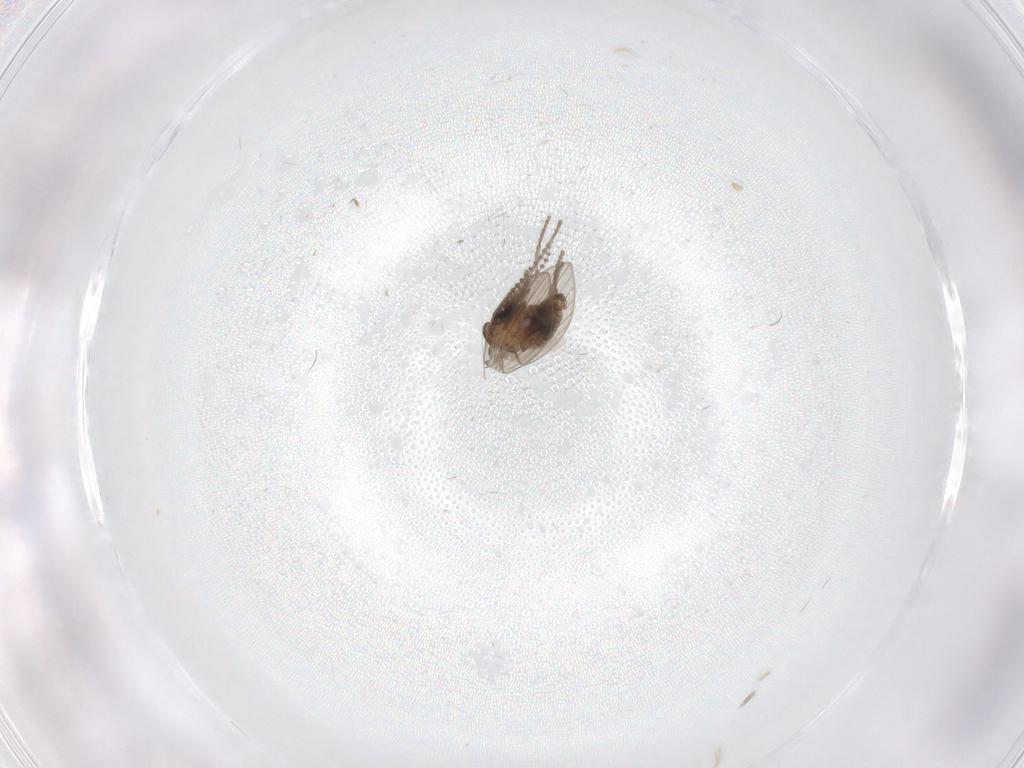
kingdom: Animalia
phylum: Arthropoda
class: Insecta
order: Diptera
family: Psychodidae
